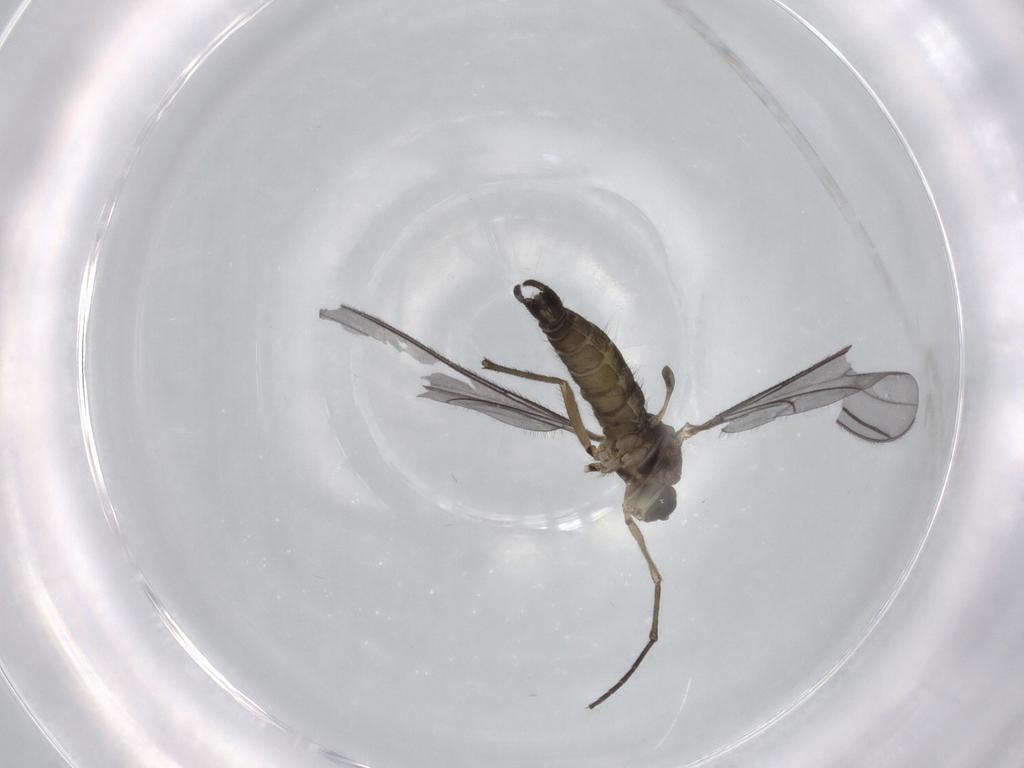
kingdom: Animalia
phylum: Arthropoda
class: Insecta
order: Diptera
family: Sciaridae
